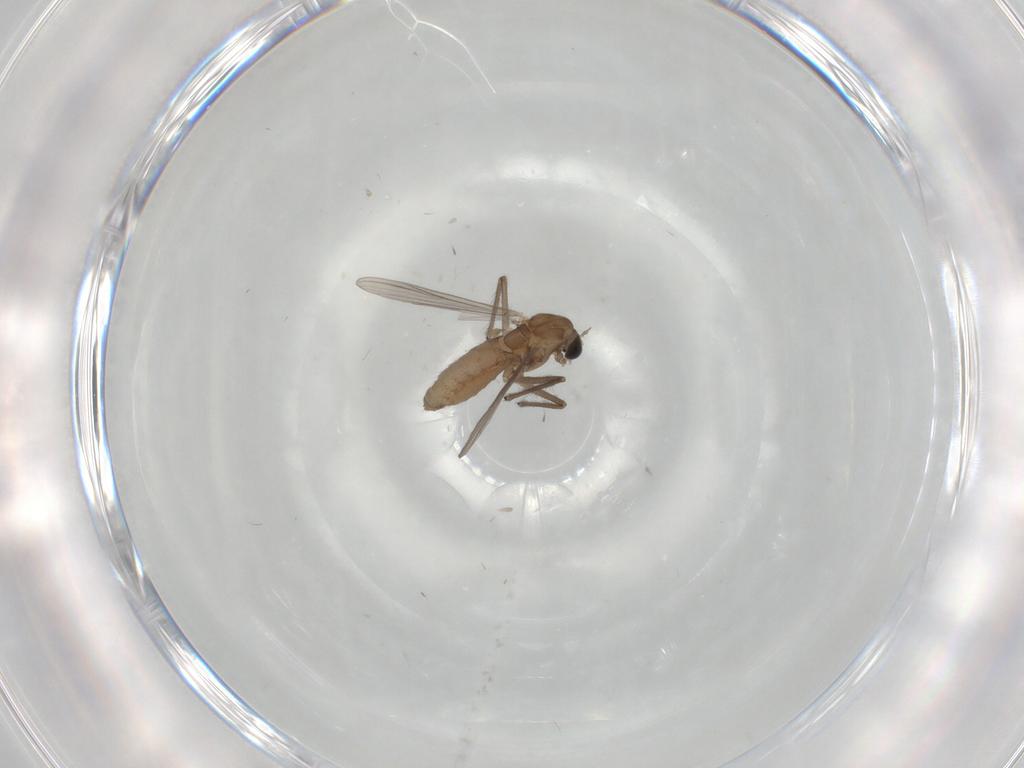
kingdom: Animalia
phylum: Arthropoda
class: Insecta
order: Diptera
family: Chironomidae
